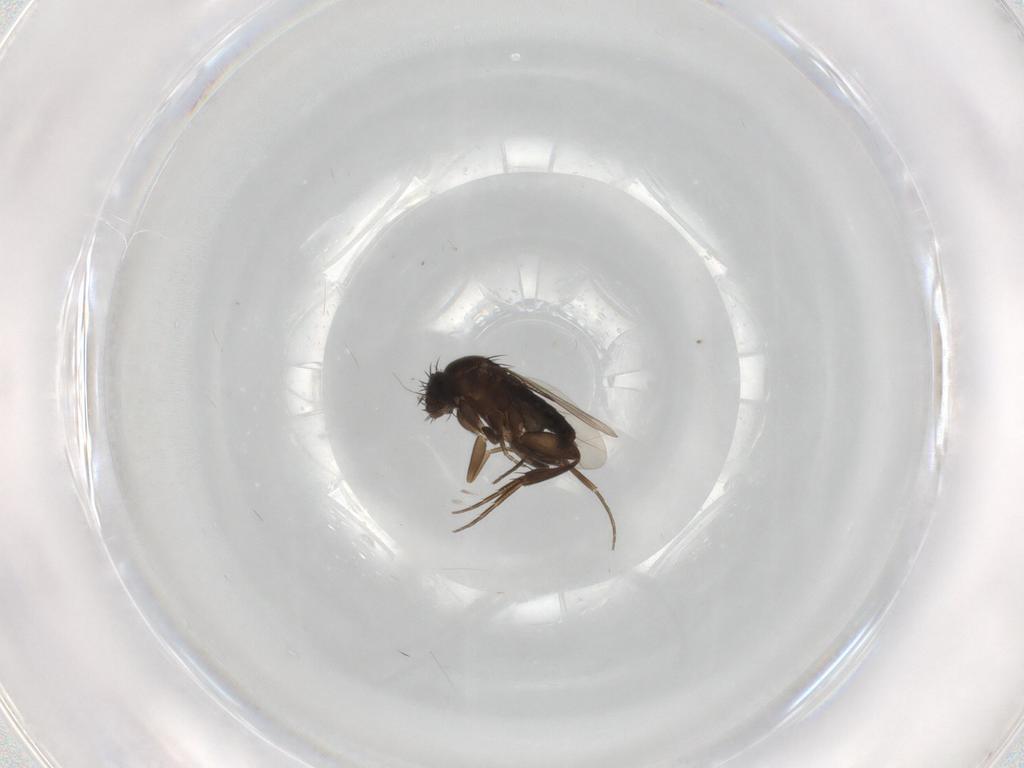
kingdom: Animalia
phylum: Arthropoda
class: Insecta
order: Diptera
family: Phoridae
